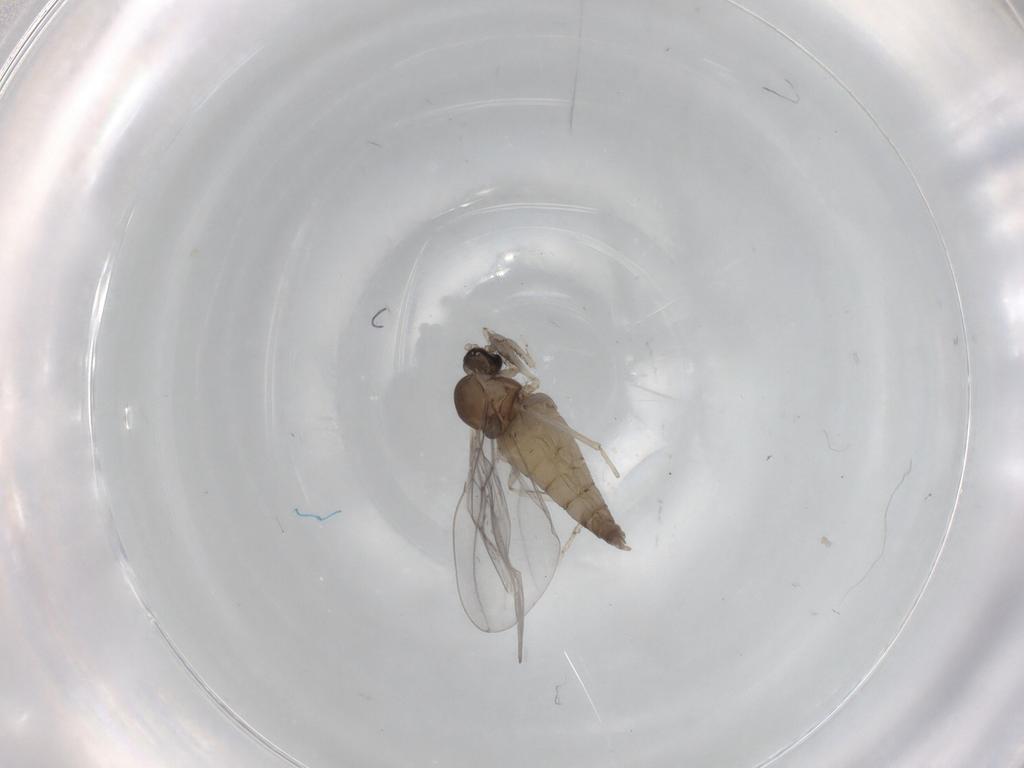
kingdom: Animalia
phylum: Arthropoda
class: Insecta
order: Diptera
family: Cecidomyiidae
